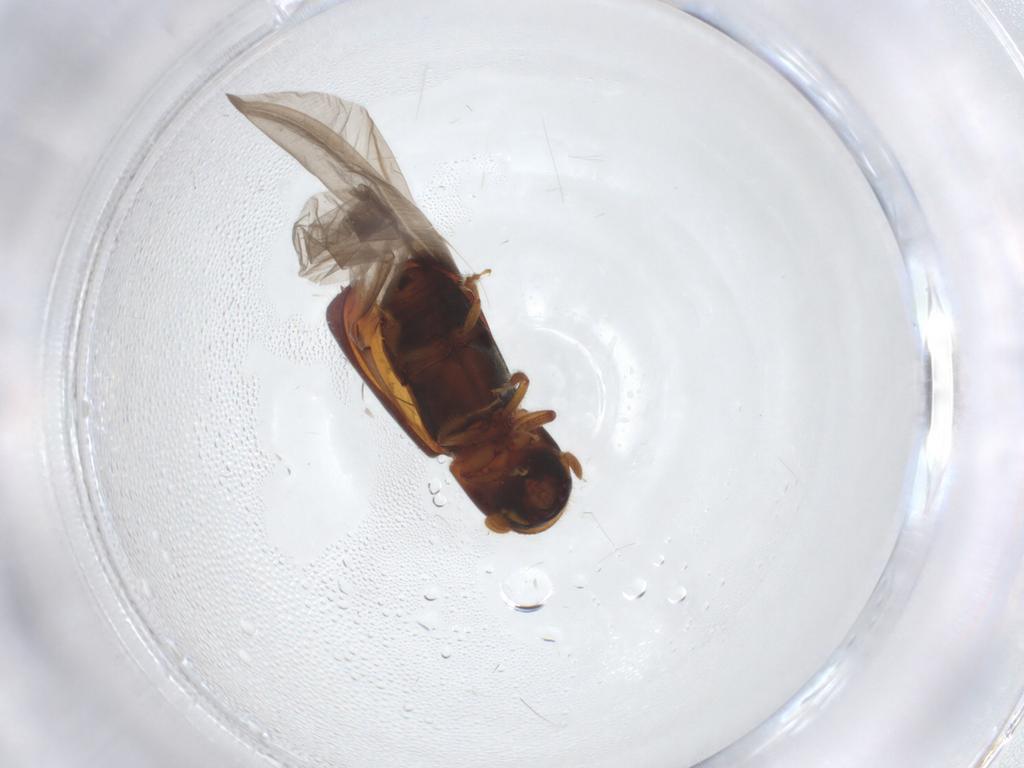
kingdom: Animalia
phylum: Arthropoda
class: Insecta
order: Coleoptera
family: Curculionidae
